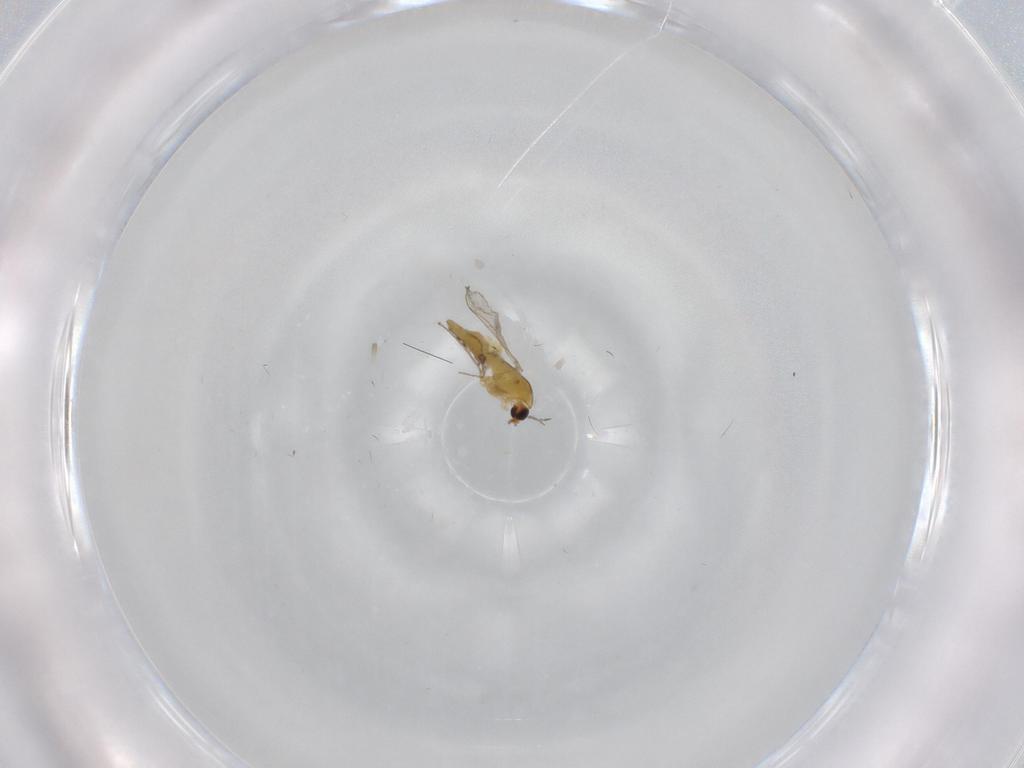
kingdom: Animalia
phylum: Arthropoda
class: Insecta
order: Diptera
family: Chironomidae
